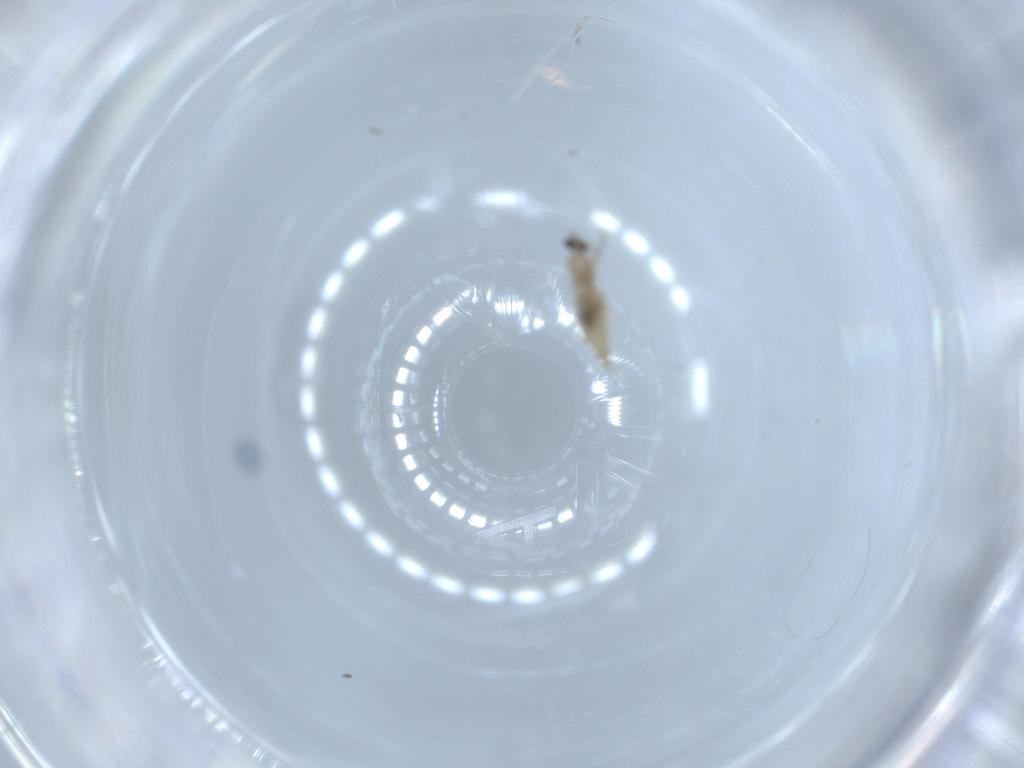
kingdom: Animalia
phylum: Arthropoda
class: Insecta
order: Diptera
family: Cecidomyiidae
